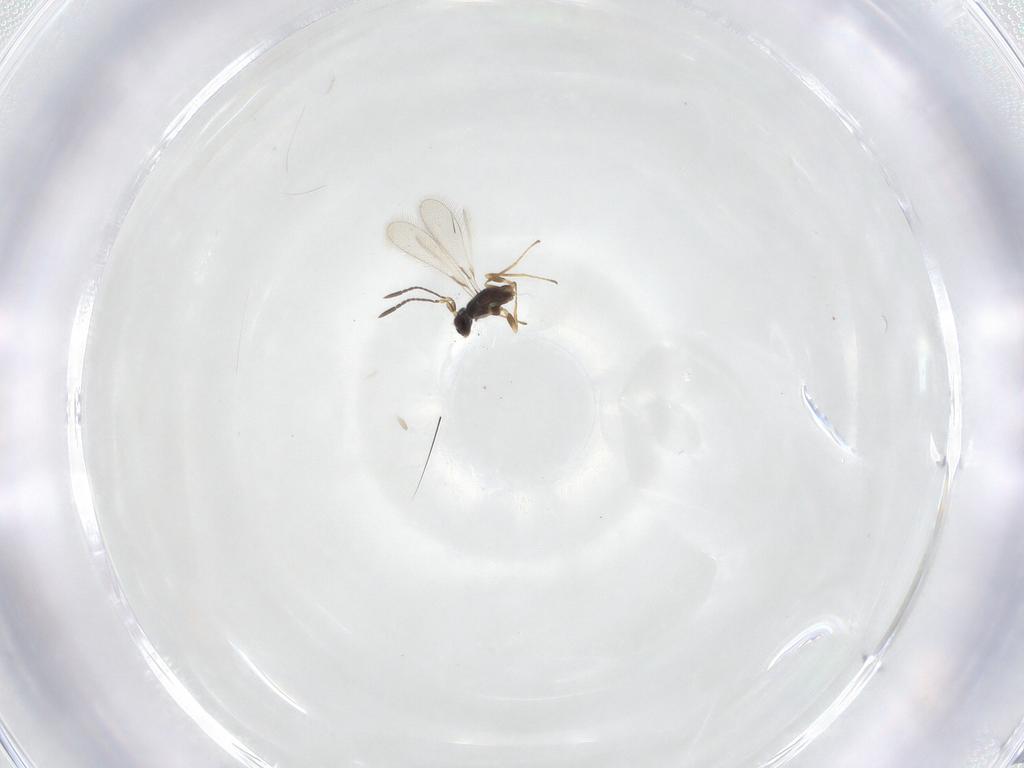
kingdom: Animalia
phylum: Arthropoda
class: Insecta
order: Hymenoptera
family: Mymaridae
